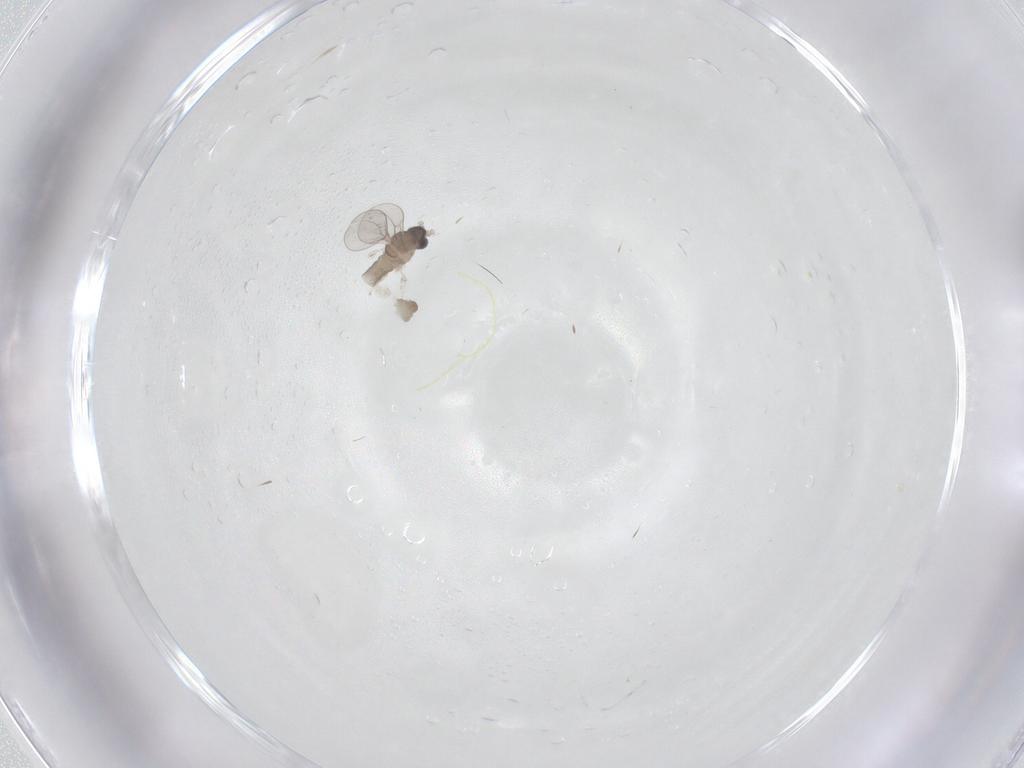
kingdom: Animalia
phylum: Arthropoda
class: Insecta
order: Diptera
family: Cecidomyiidae
